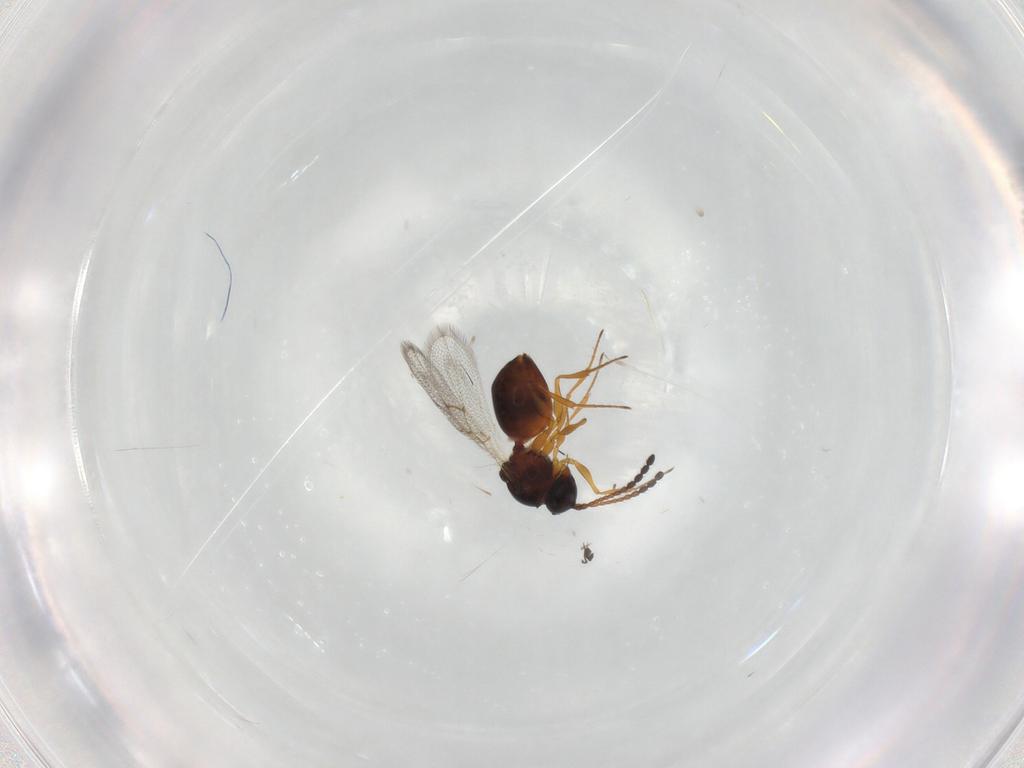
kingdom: Animalia
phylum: Arthropoda
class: Insecta
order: Hymenoptera
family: Figitidae
